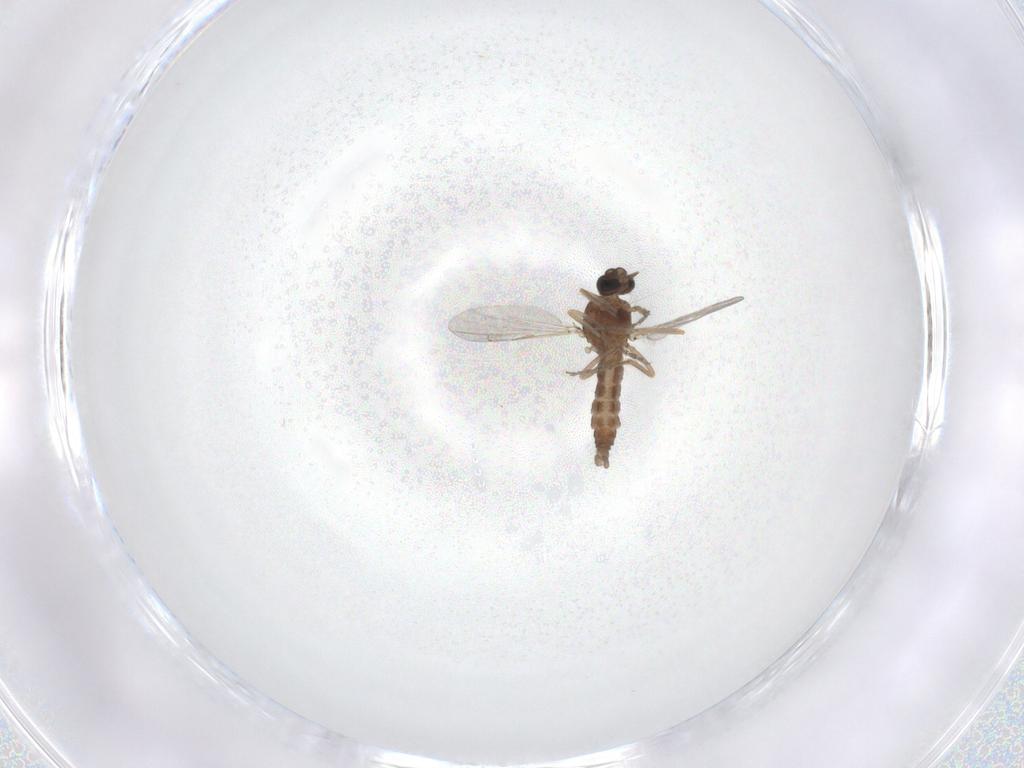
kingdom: Animalia
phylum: Arthropoda
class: Insecta
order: Diptera
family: Ceratopogonidae
